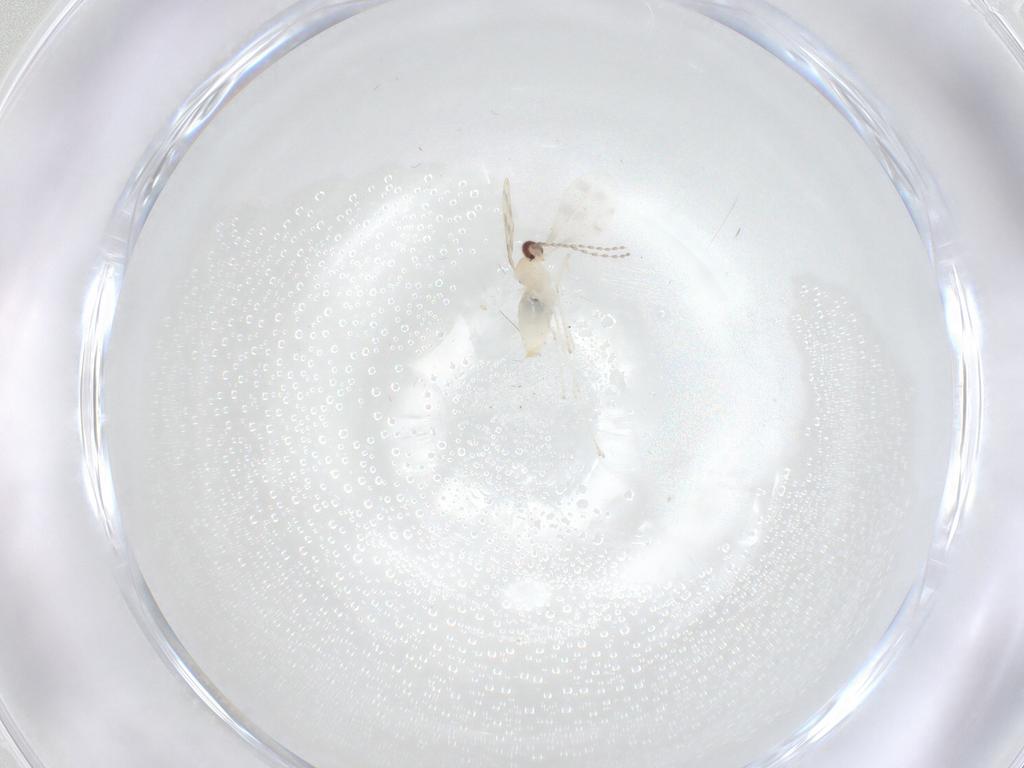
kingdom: Animalia
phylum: Arthropoda
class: Insecta
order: Diptera
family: Cecidomyiidae
